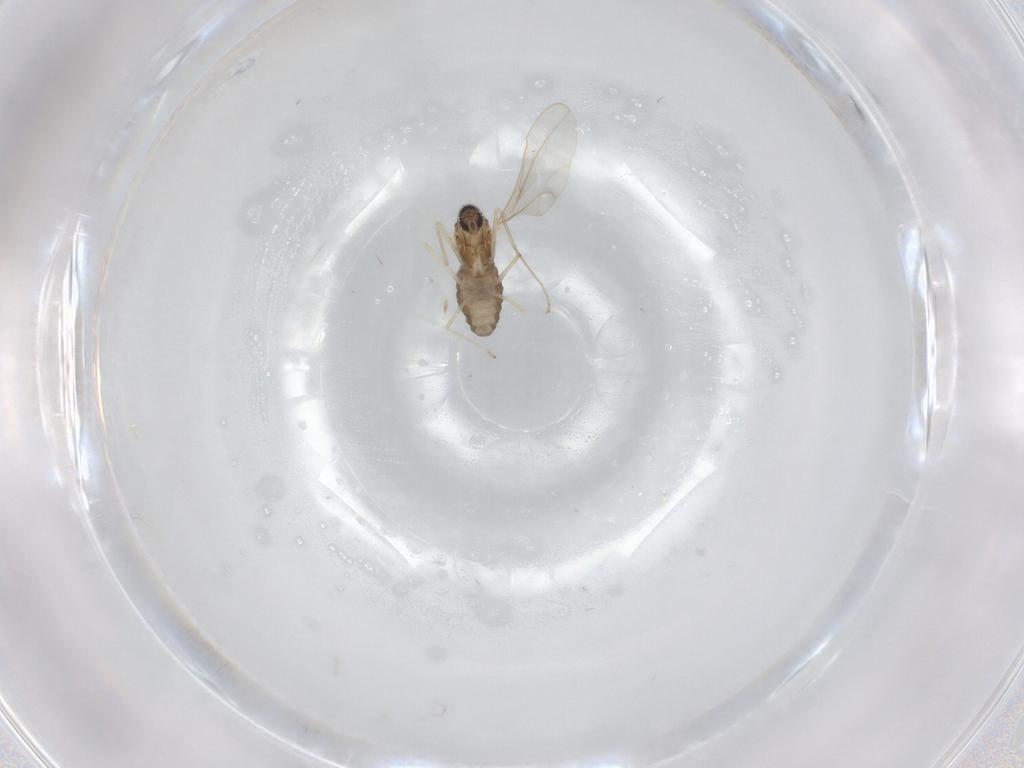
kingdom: Animalia
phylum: Arthropoda
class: Insecta
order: Diptera
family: Cecidomyiidae
